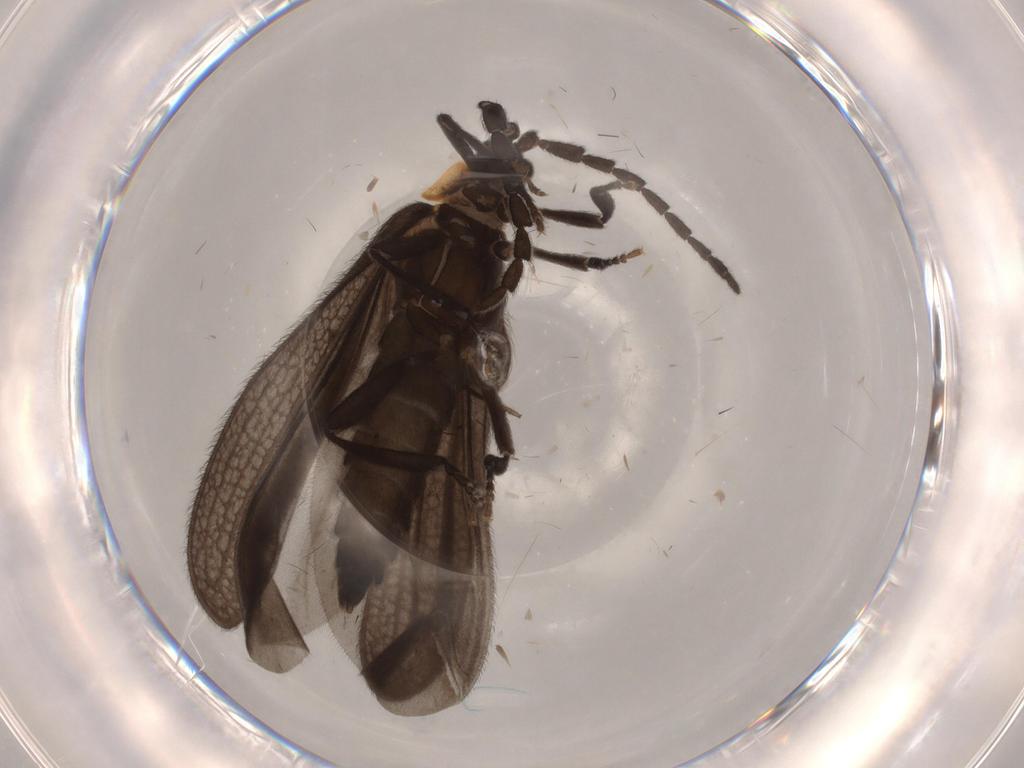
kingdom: Animalia
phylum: Arthropoda
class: Insecta
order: Coleoptera
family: Lycidae
